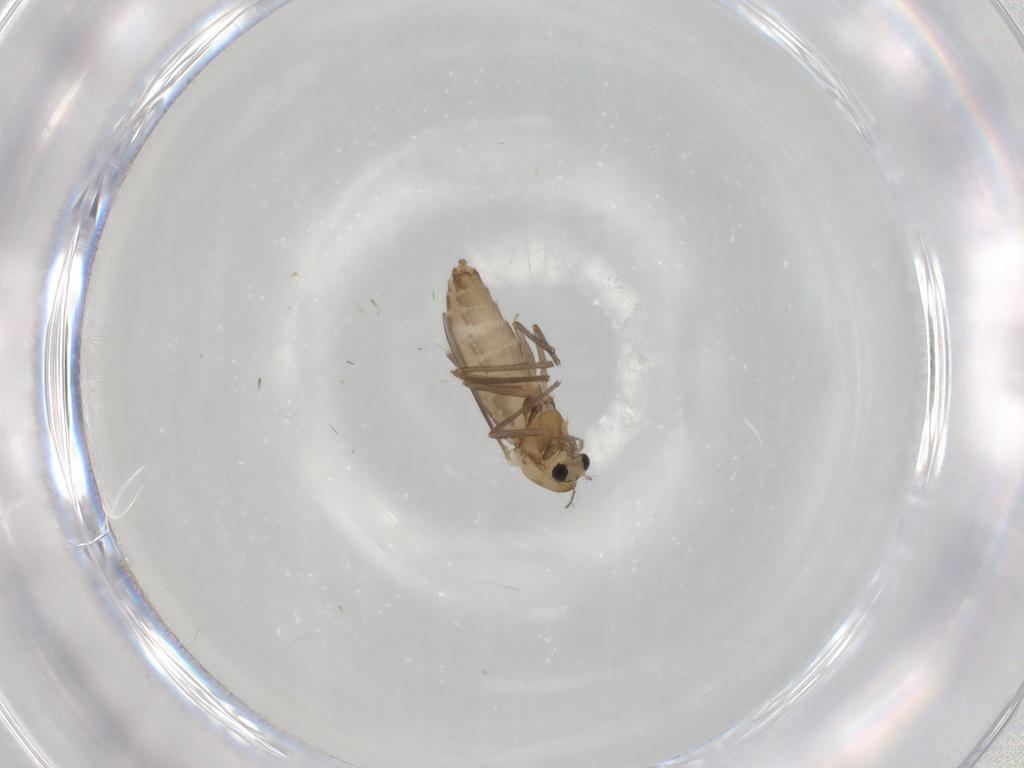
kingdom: Animalia
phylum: Arthropoda
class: Insecta
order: Diptera
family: Chironomidae
